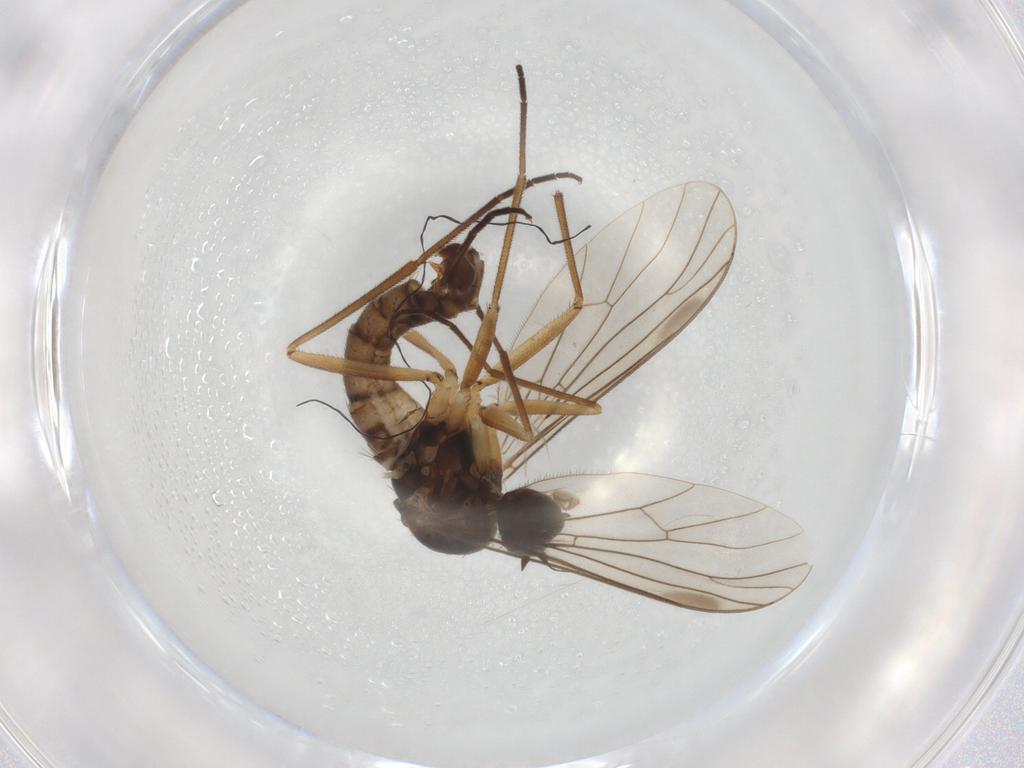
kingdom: Animalia
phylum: Arthropoda
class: Insecta
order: Diptera
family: Empididae
